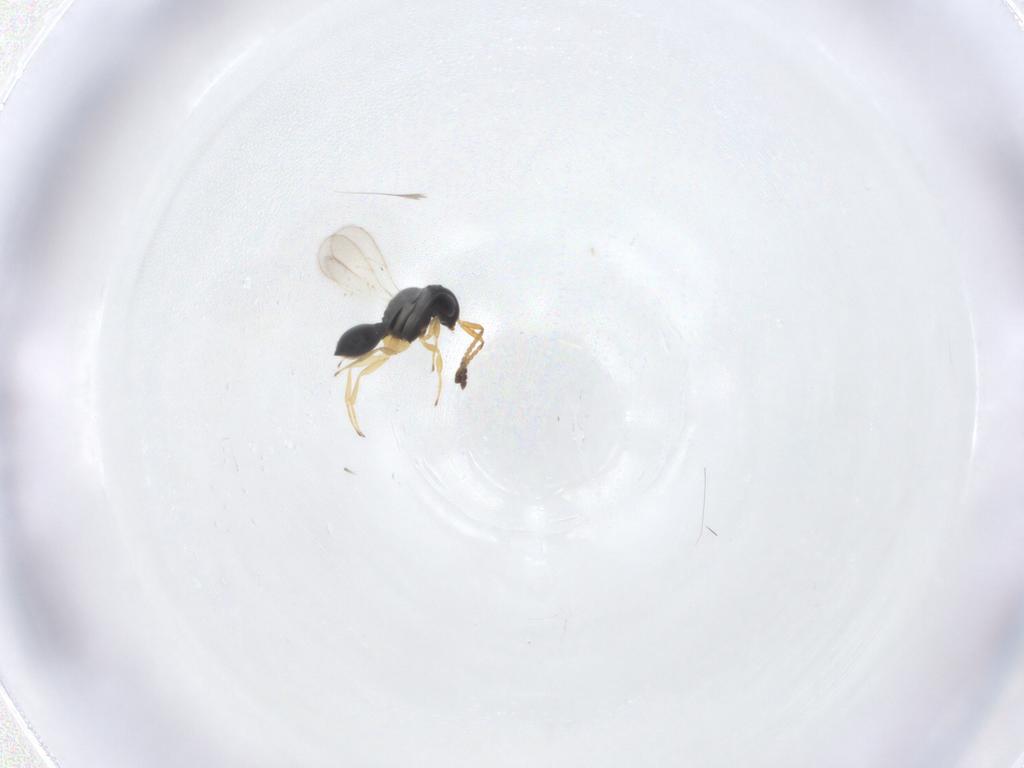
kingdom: Animalia
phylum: Arthropoda
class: Insecta
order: Hymenoptera
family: Scelionidae
